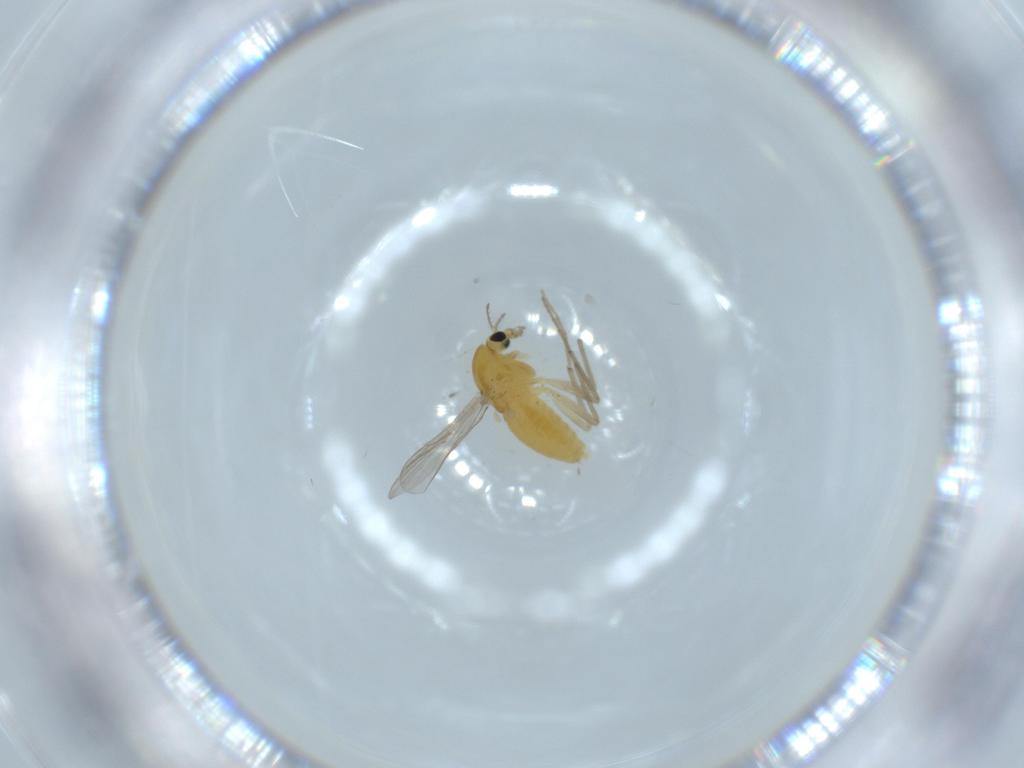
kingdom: Animalia
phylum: Arthropoda
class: Insecta
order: Diptera
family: Chironomidae
